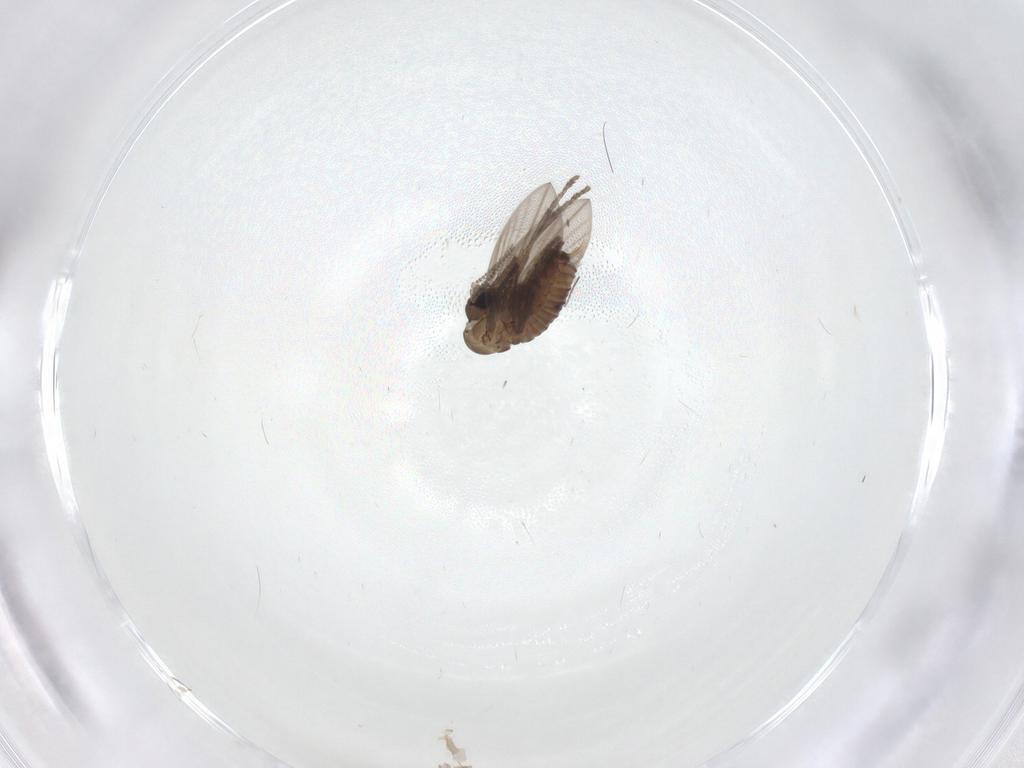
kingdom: Animalia
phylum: Arthropoda
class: Insecta
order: Diptera
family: Psychodidae
